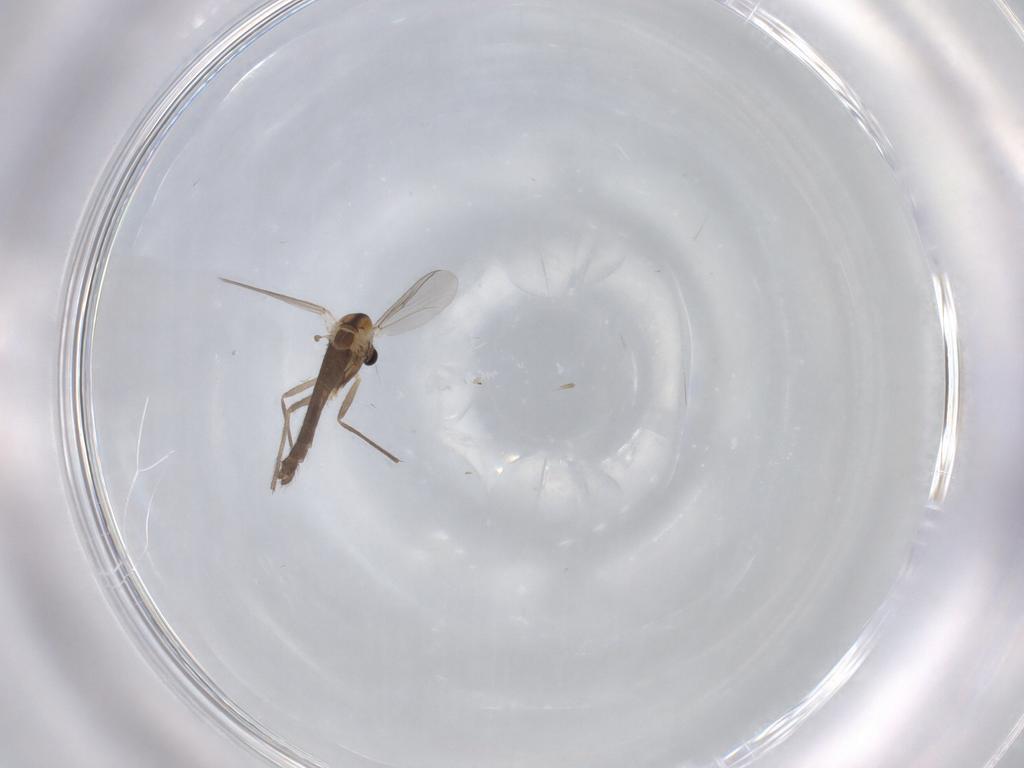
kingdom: Animalia
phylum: Arthropoda
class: Insecta
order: Diptera
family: Chironomidae
